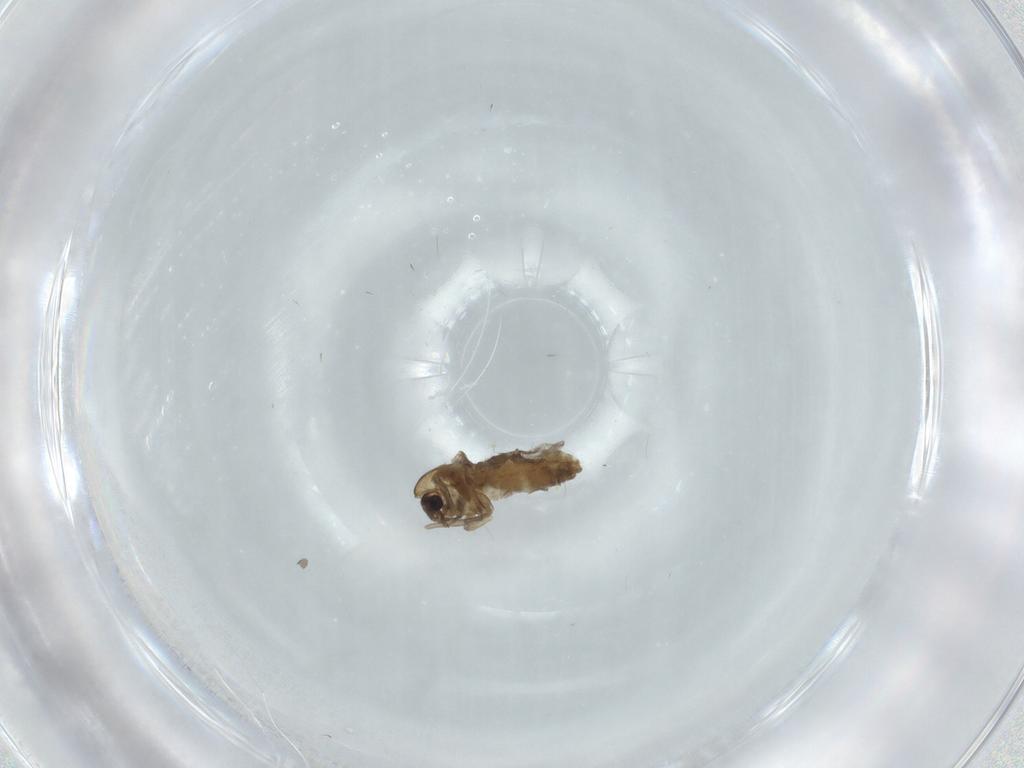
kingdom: Animalia
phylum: Arthropoda
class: Insecta
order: Diptera
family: Chironomidae
